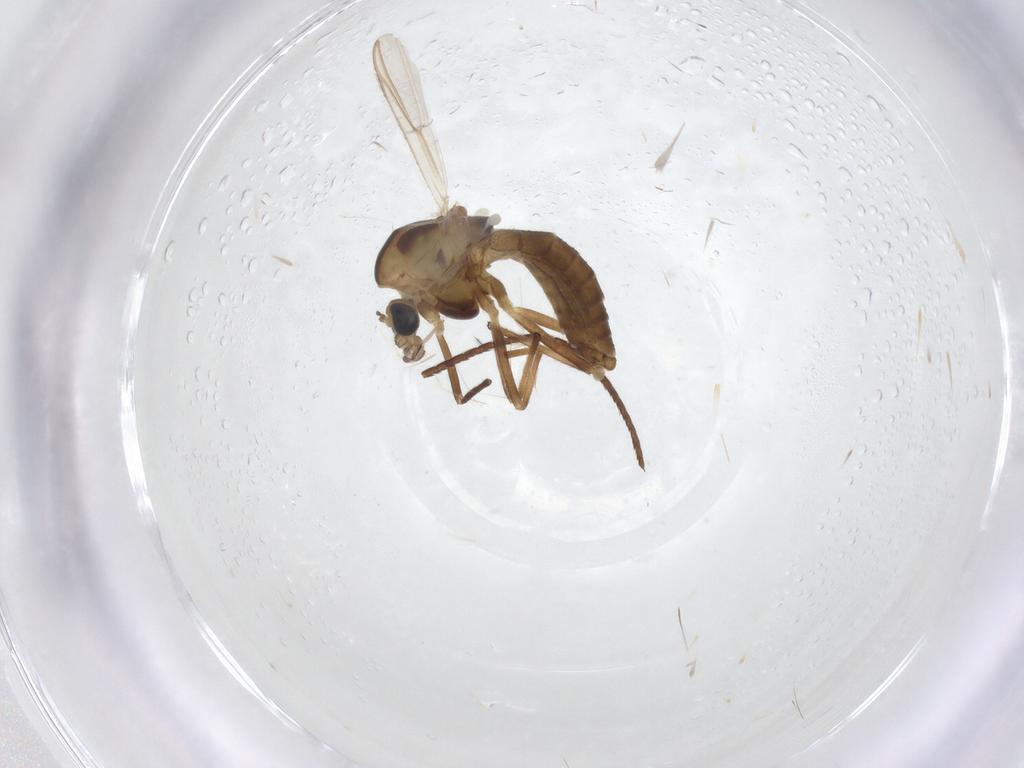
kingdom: Animalia
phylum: Arthropoda
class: Insecta
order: Diptera
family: Chironomidae
